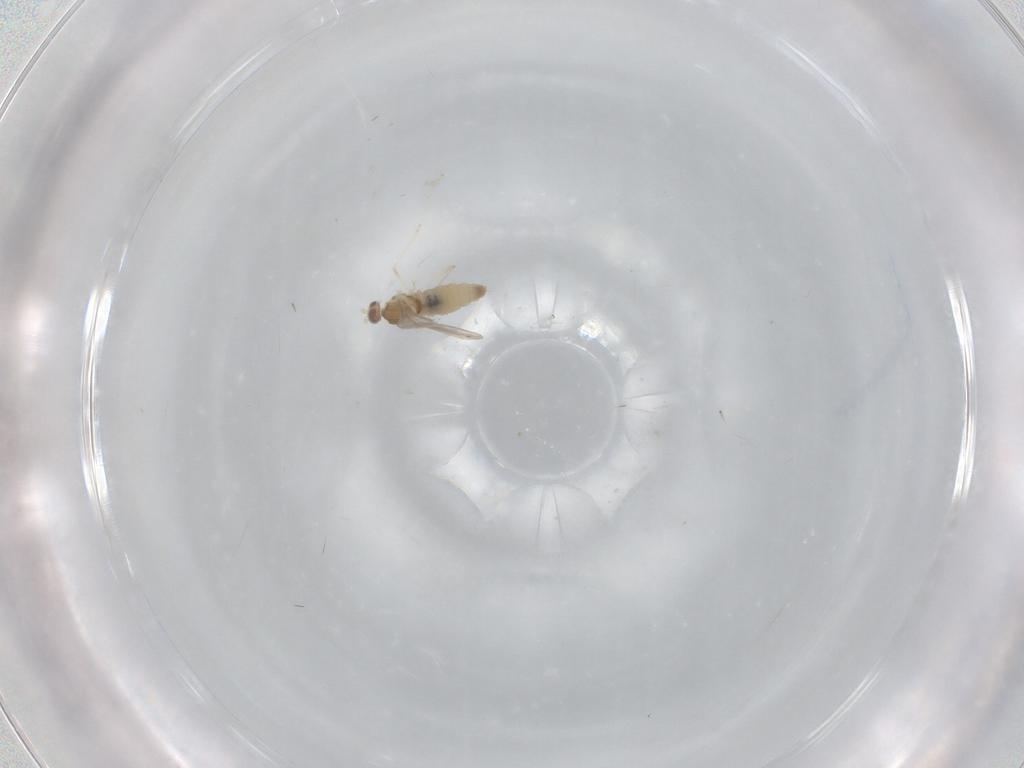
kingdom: Animalia
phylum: Arthropoda
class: Insecta
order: Diptera
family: Cecidomyiidae
